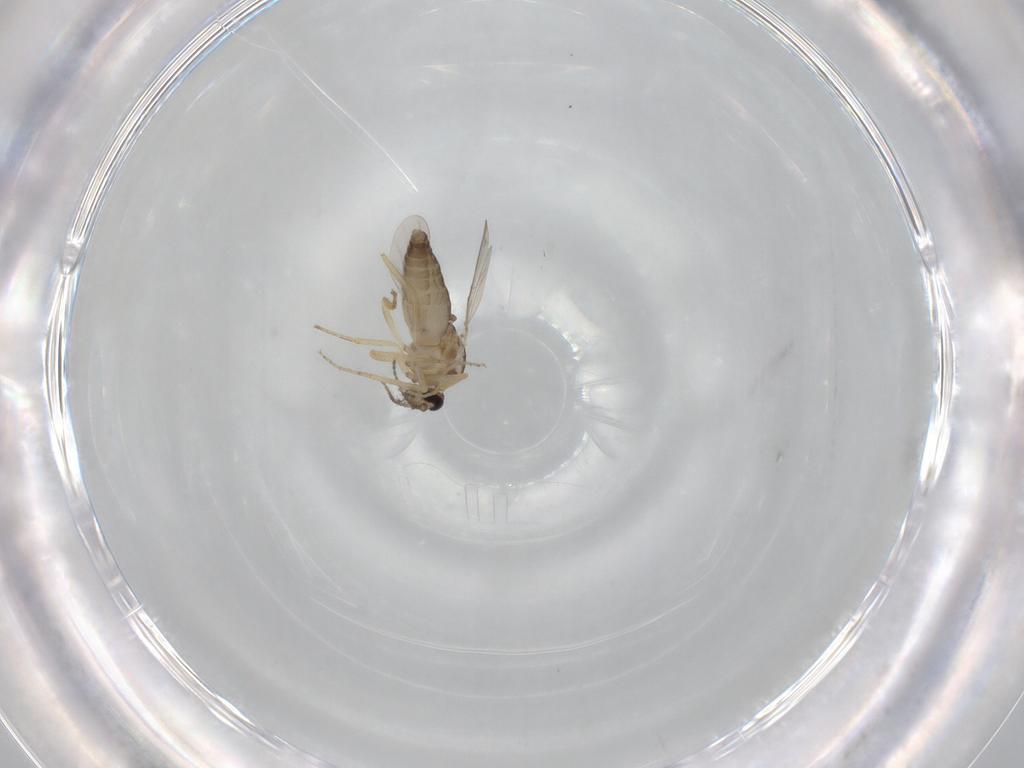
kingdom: Animalia
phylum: Arthropoda
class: Insecta
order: Diptera
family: Ceratopogonidae
